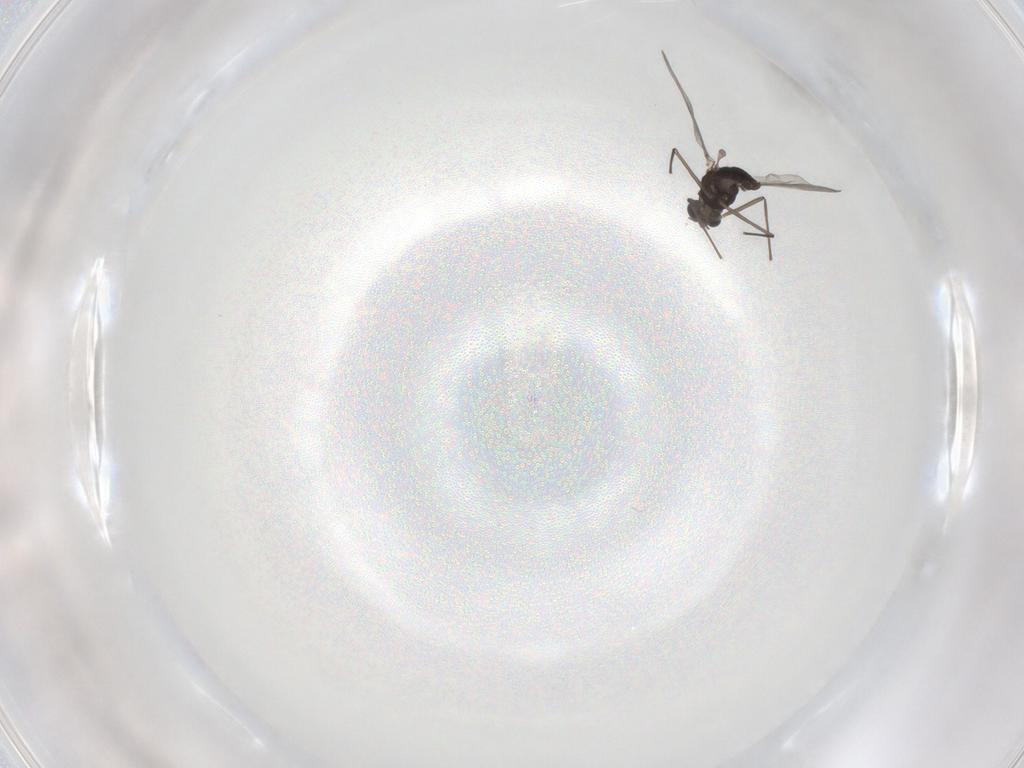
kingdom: Animalia
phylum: Arthropoda
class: Insecta
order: Diptera
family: Chironomidae
